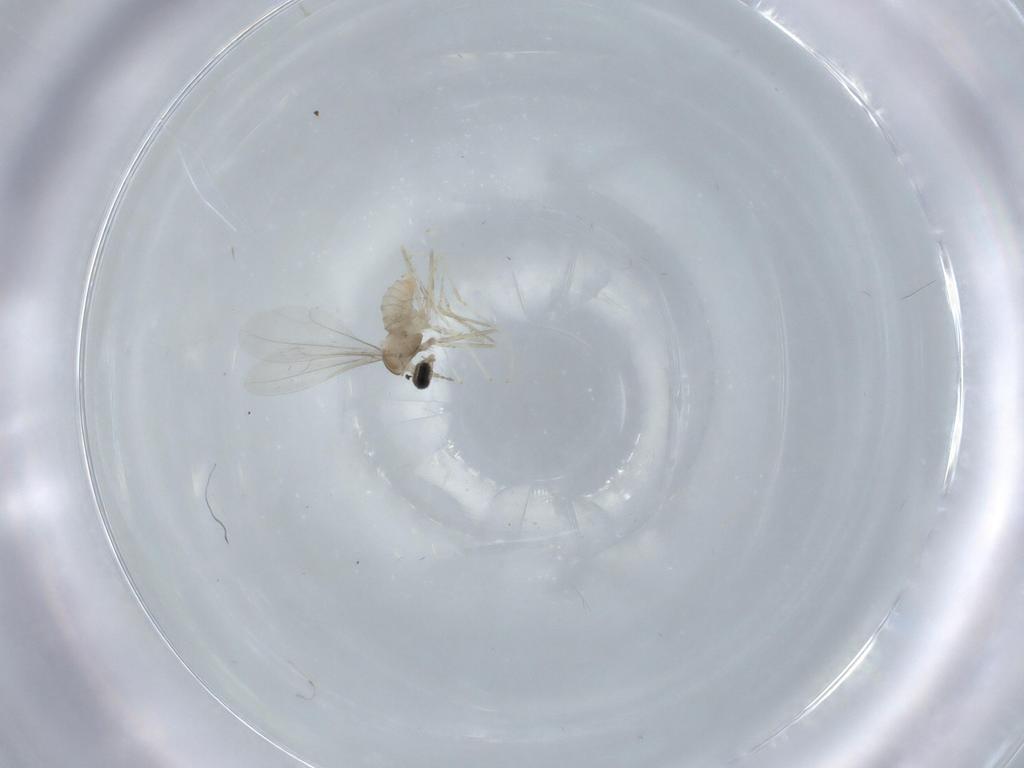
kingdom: Animalia
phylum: Arthropoda
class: Insecta
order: Diptera
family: Cecidomyiidae
